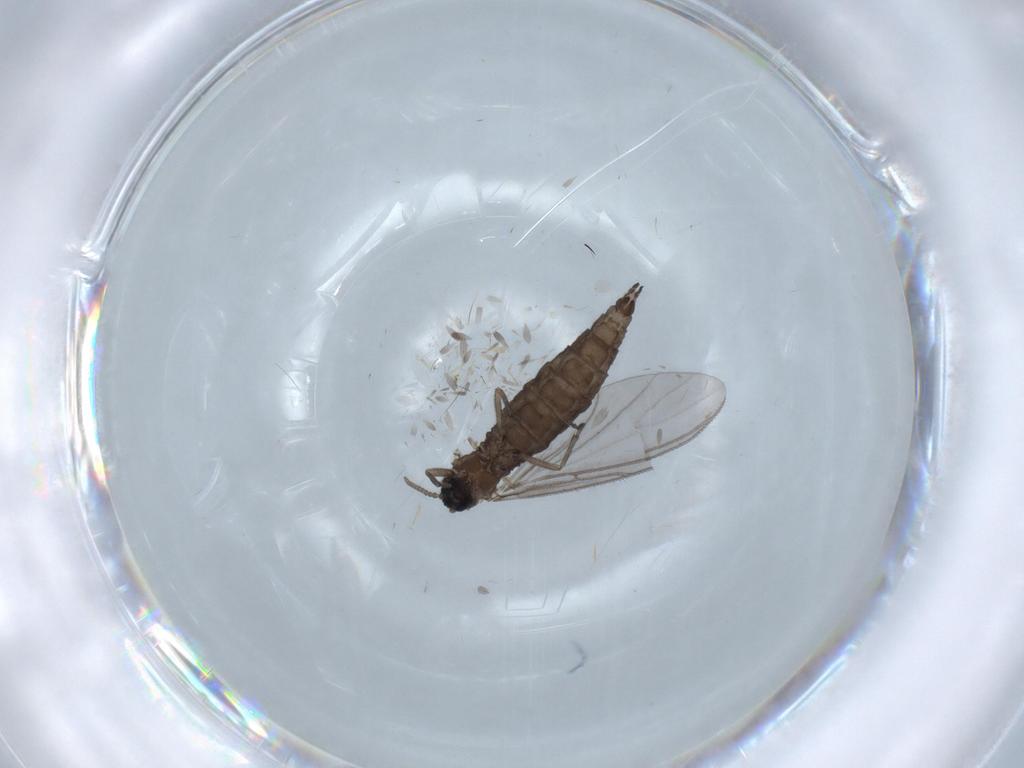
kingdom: Animalia
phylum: Arthropoda
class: Insecta
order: Diptera
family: Sciaridae
